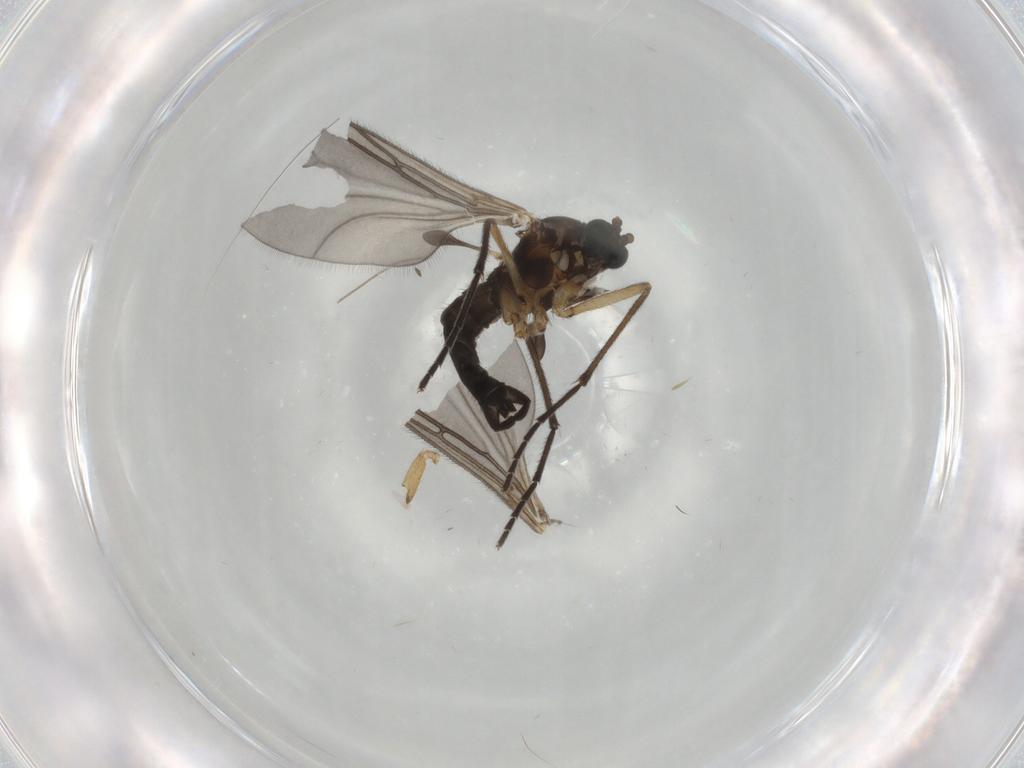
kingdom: Animalia
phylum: Arthropoda
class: Insecta
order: Diptera
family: Sciaridae
